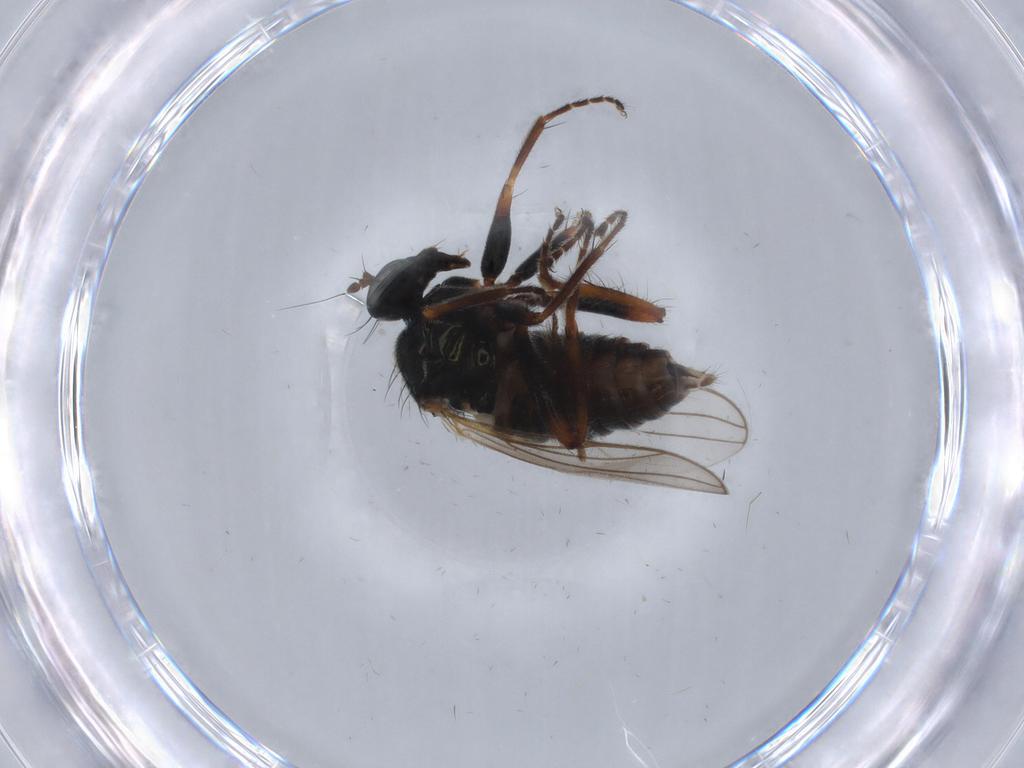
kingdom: Animalia
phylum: Arthropoda
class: Insecta
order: Diptera
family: Hybotidae
